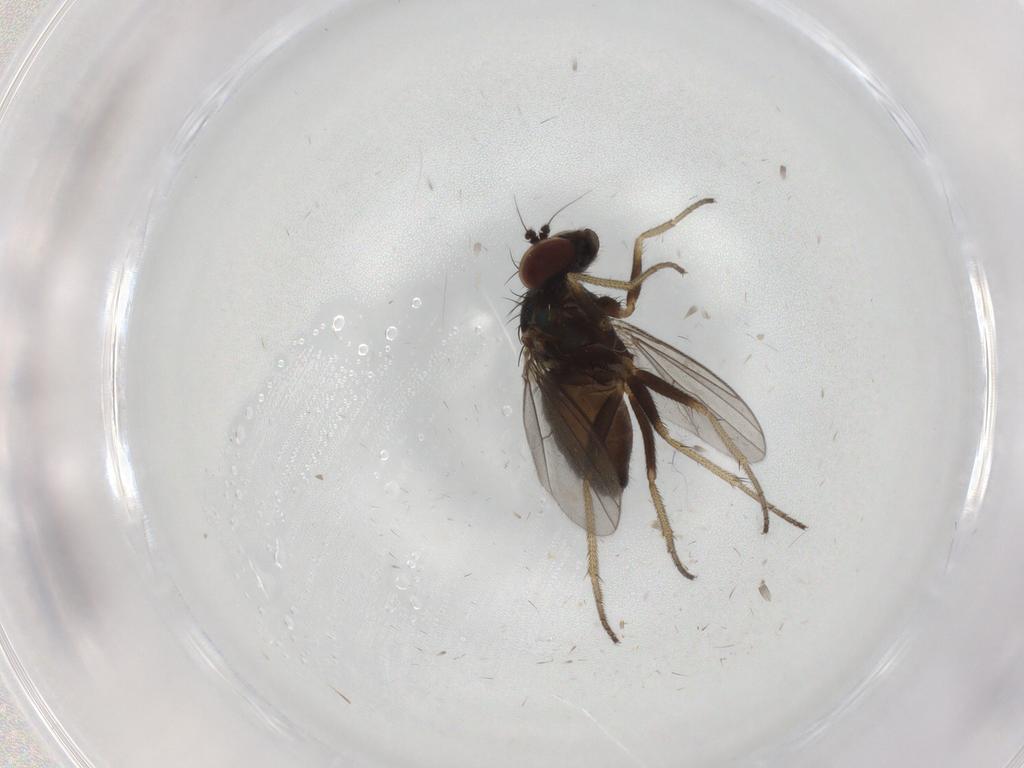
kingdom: Animalia
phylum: Arthropoda
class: Insecta
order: Diptera
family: Dolichopodidae
